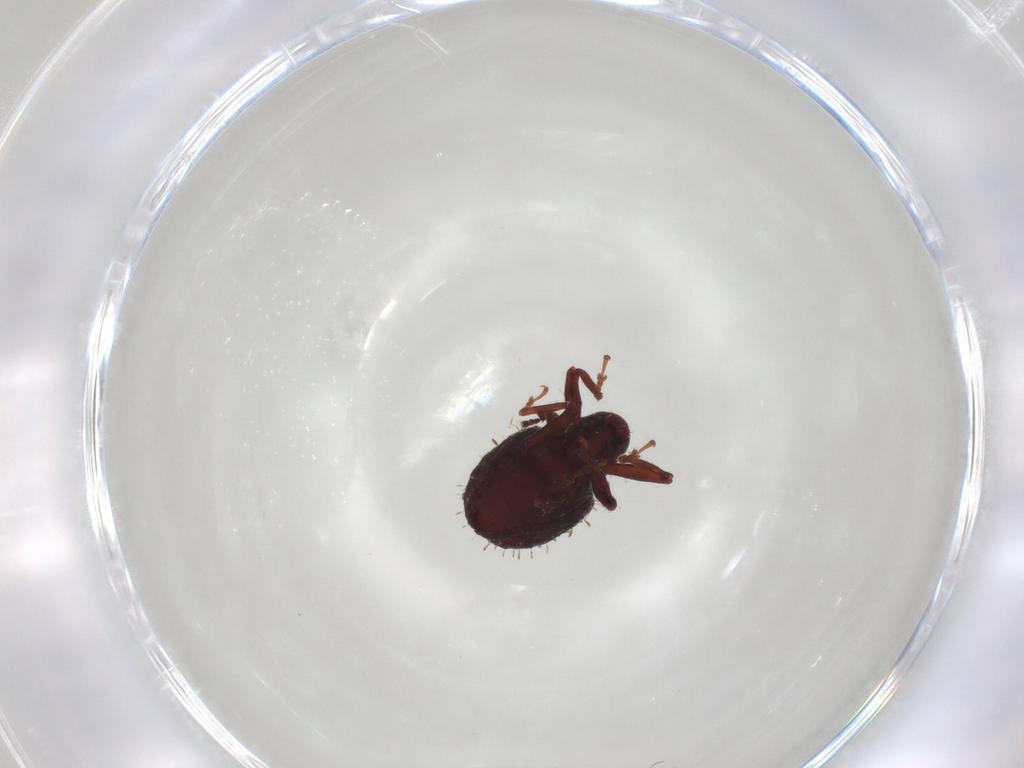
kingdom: Animalia
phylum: Arthropoda
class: Insecta
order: Coleoptera
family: Curculionidae
